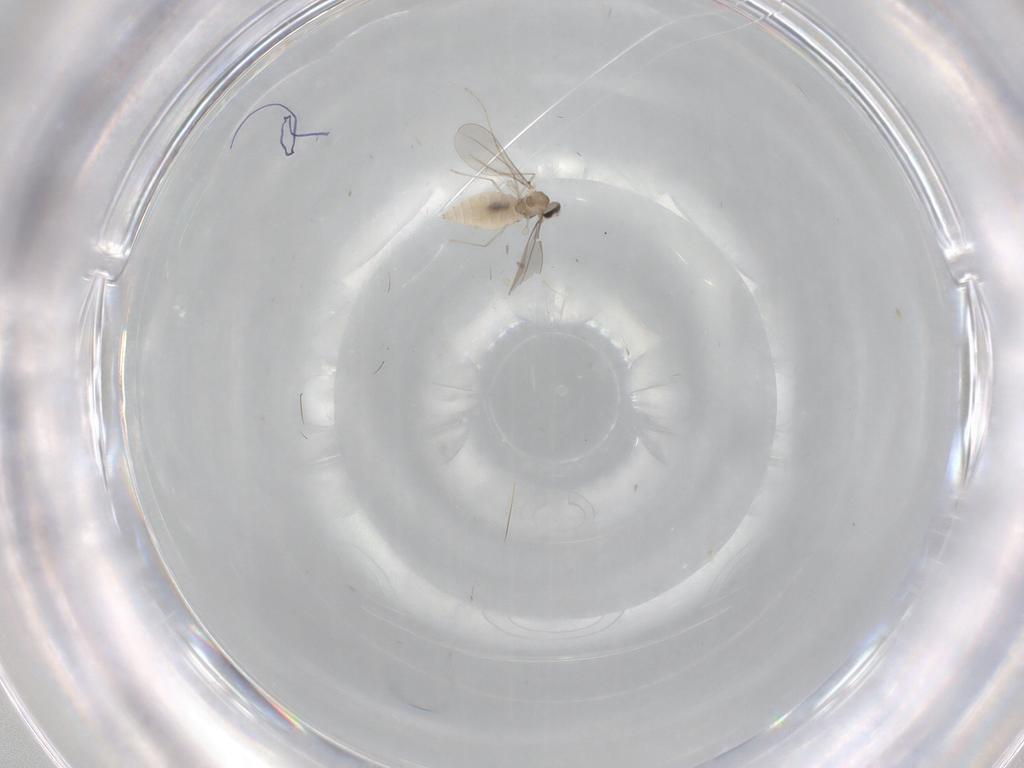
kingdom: Animalia
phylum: Arthropoda
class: Insecta
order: Diptera
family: Cecidomyiidae
